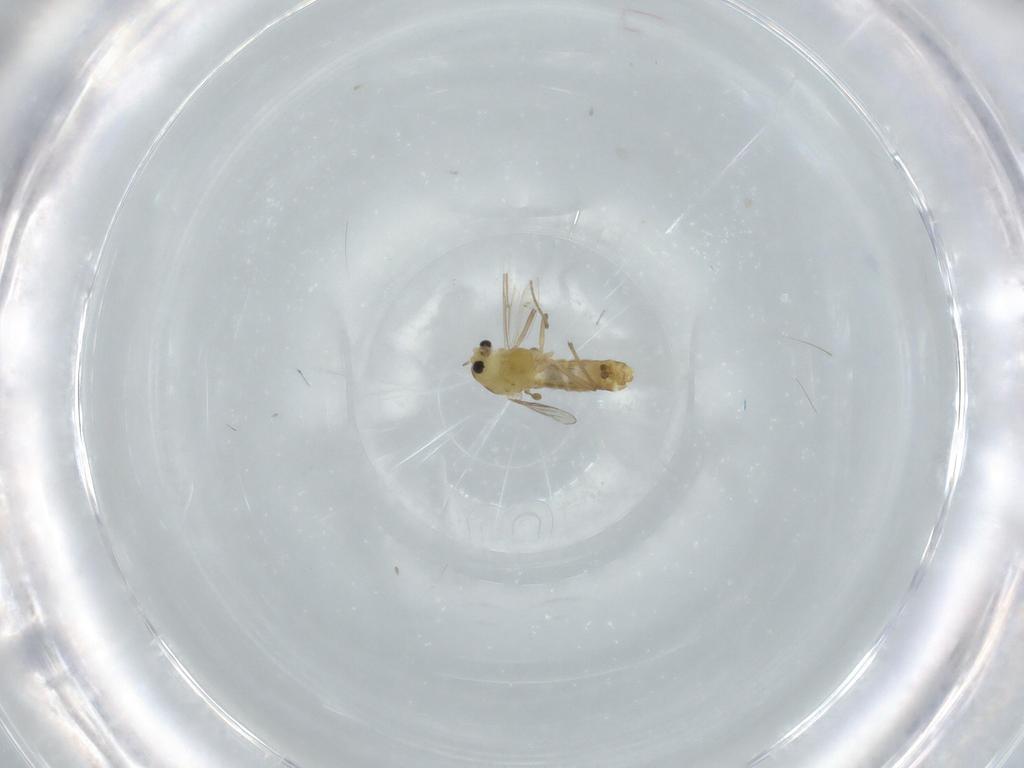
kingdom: Animalia
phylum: Arthropoda
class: Insecta
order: Diptera
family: Chironomidae
